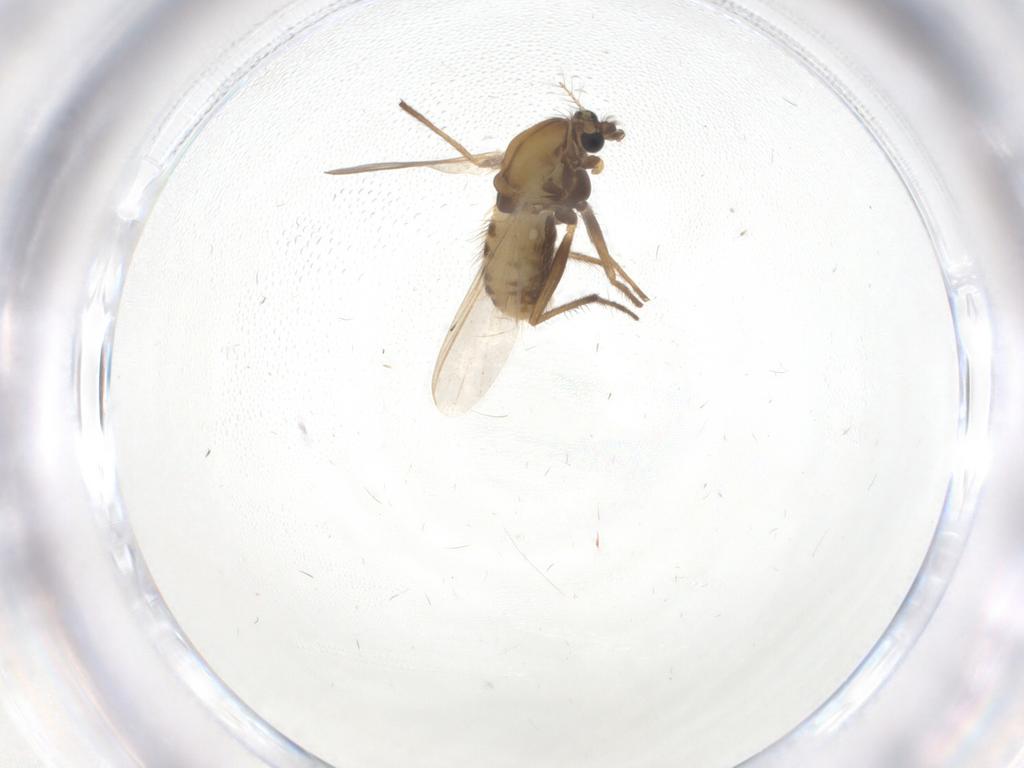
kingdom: Animalia
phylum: Arthropoda
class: Insecta
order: Diptera
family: Chironomidae
